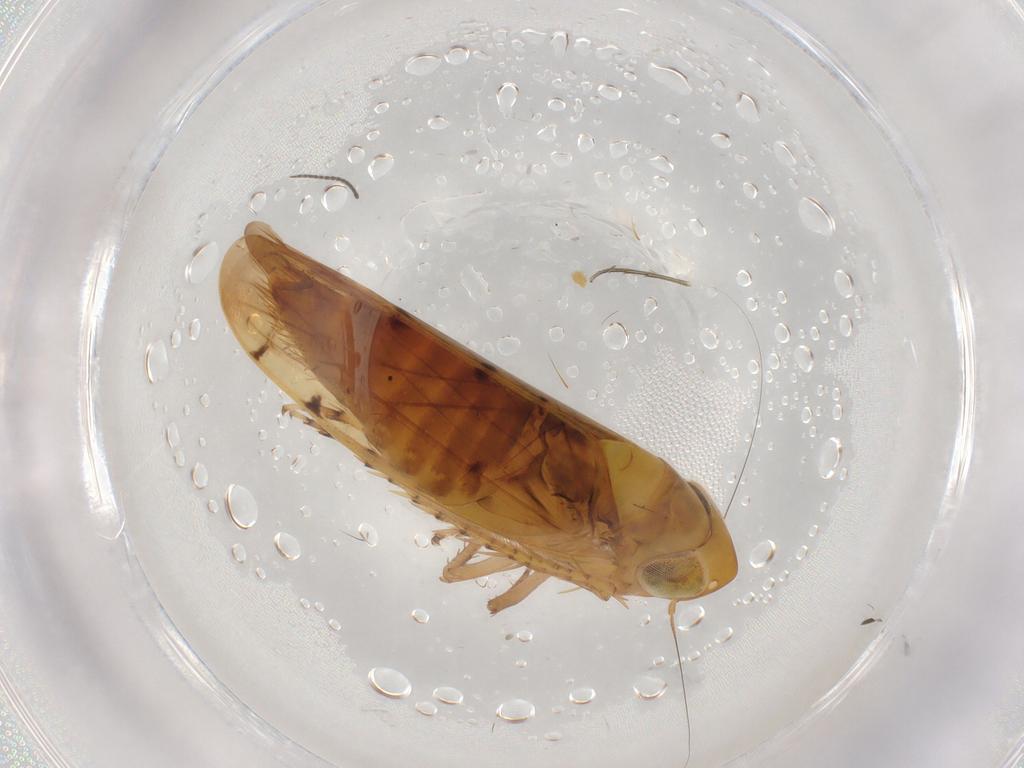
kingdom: Animalia
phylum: Arthropoda
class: Insecta
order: Hemiptera
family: Cicadellidae
